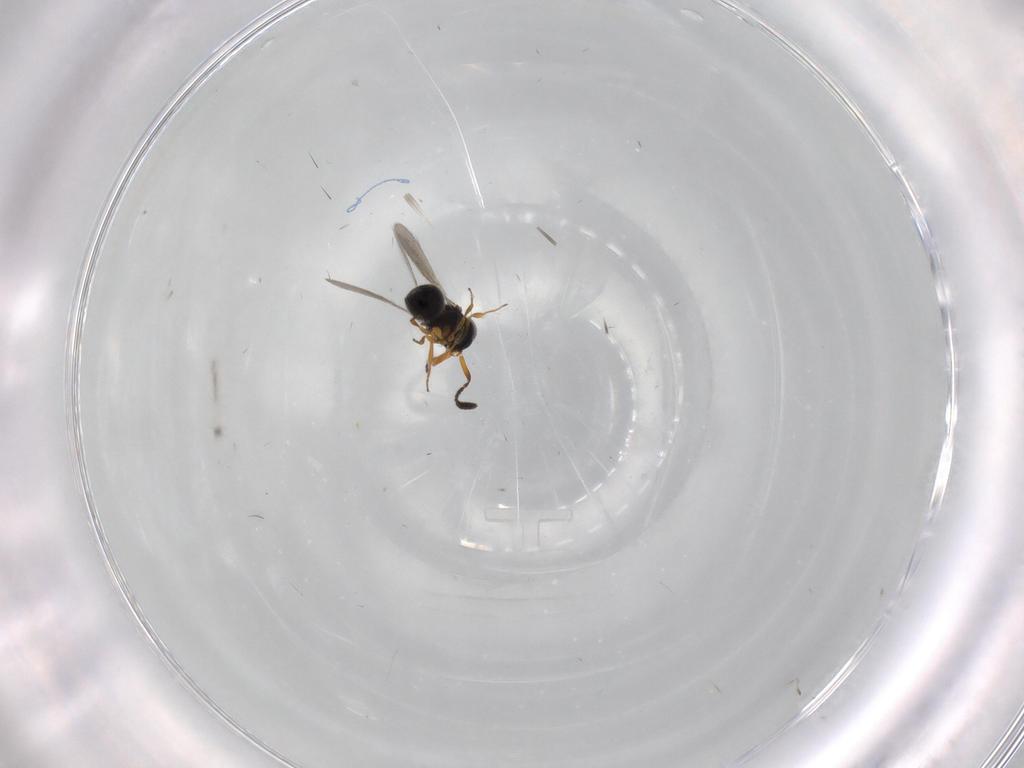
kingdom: Animalia
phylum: Arthropoda
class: Insecta
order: Hymenoptera
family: Scelionidae
